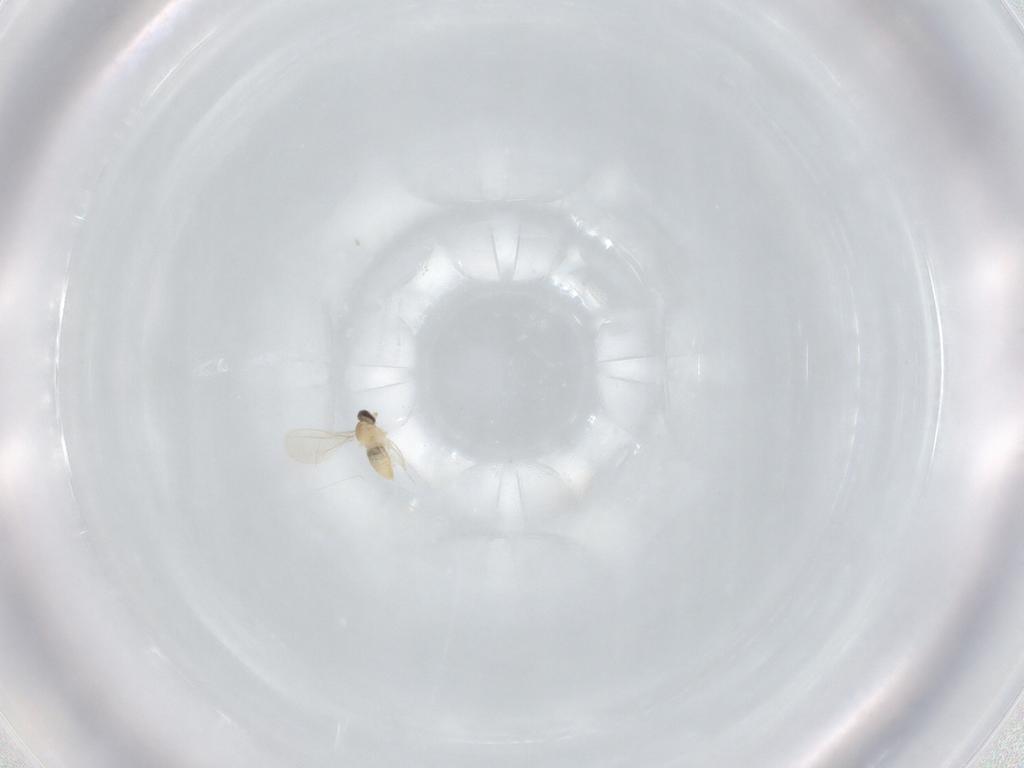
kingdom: Animalia
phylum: Arthropoda
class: Insecta
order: Diptera
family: Cecidomyiidae
